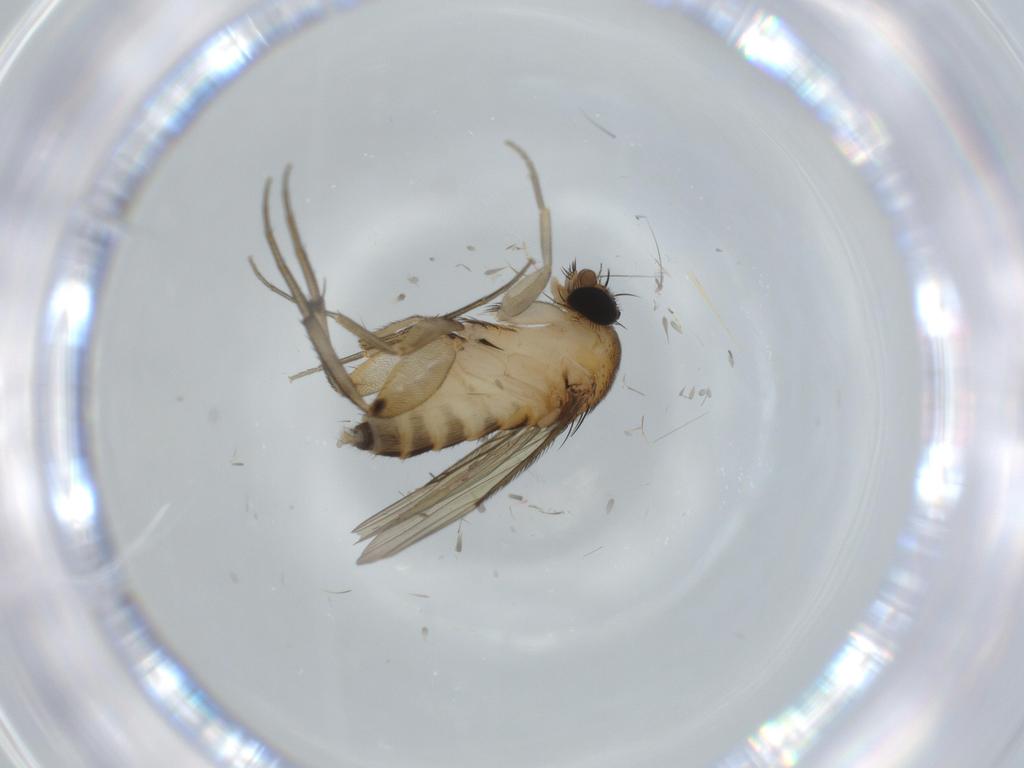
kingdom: Animalia
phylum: Arthropoda
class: Insecta
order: Diptera
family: Phoridae
